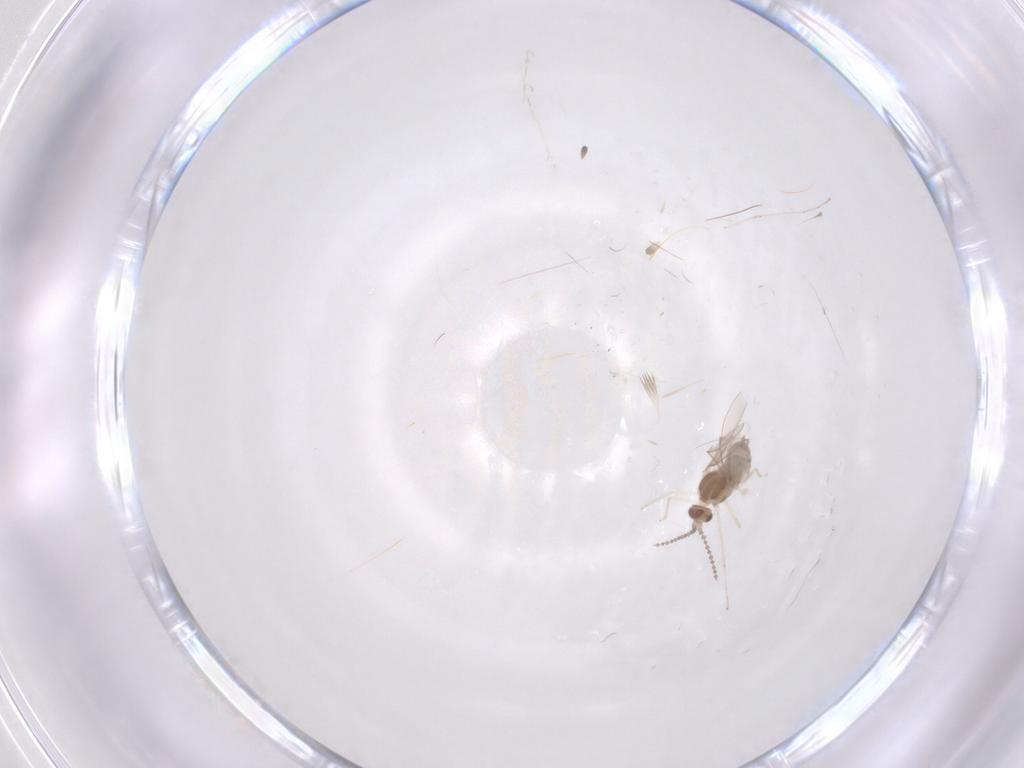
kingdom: Animalia
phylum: Arthropoda
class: Insecta
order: Diptera
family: Cecidomyiidae
